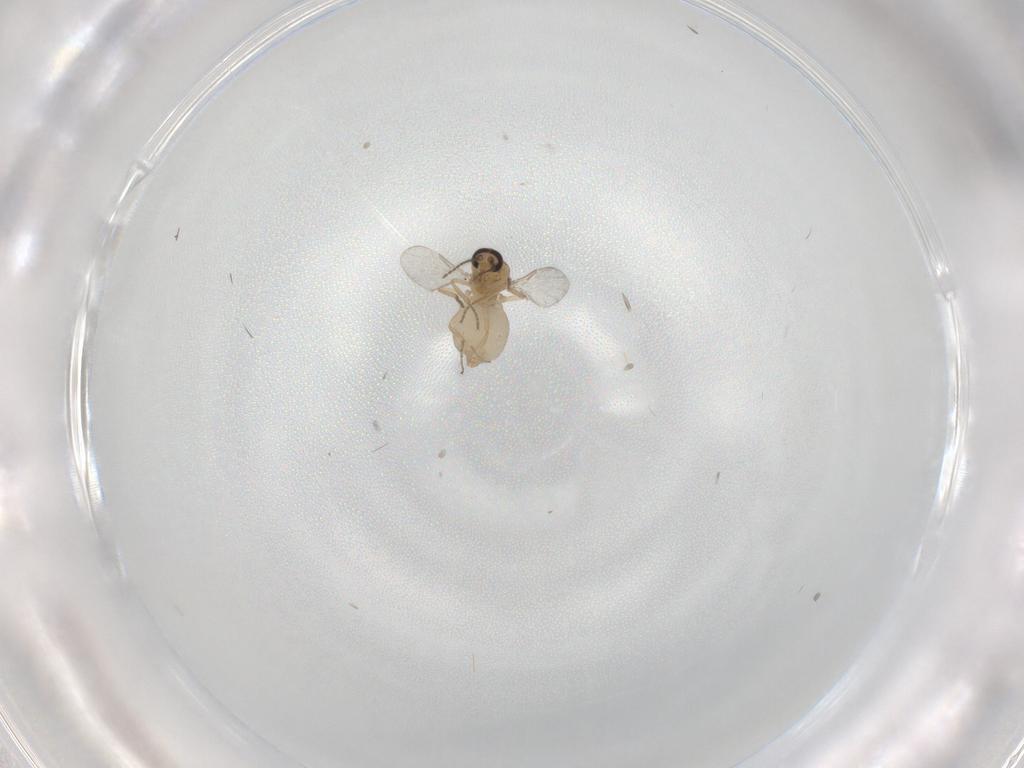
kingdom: Animalia
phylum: Arthropoda
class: Insecta
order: Diptera
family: Ceratopogonidae
